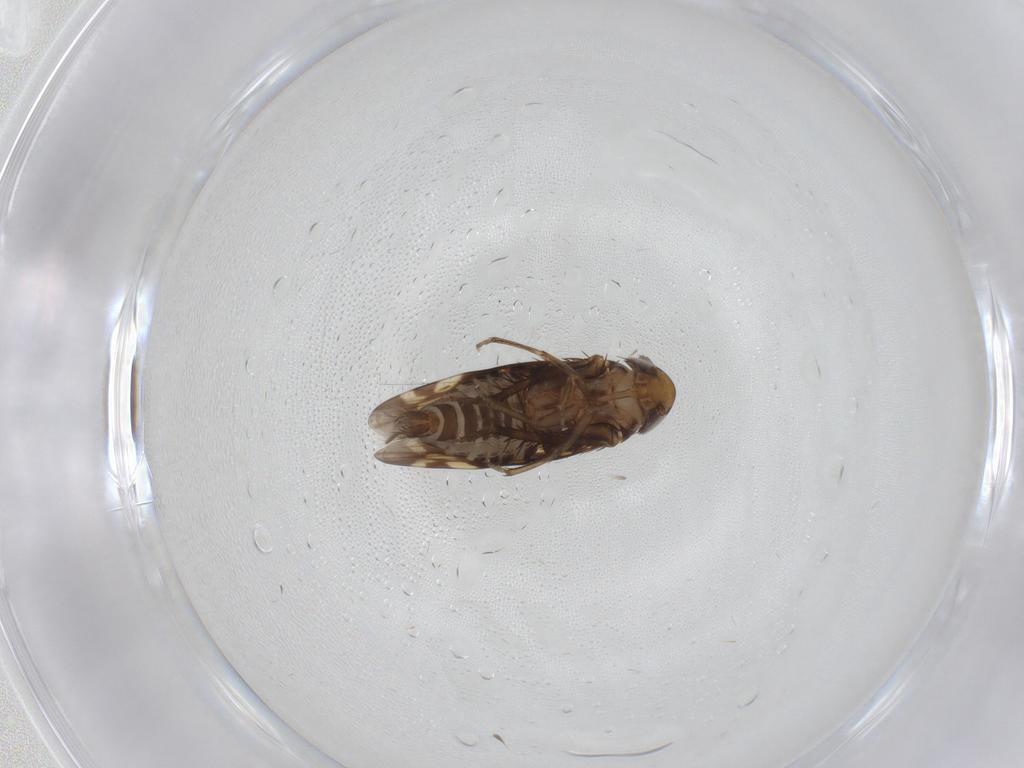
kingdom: Animalia
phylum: Arthropoda
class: Insecta
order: Hemiptera
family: Cicadellidae
